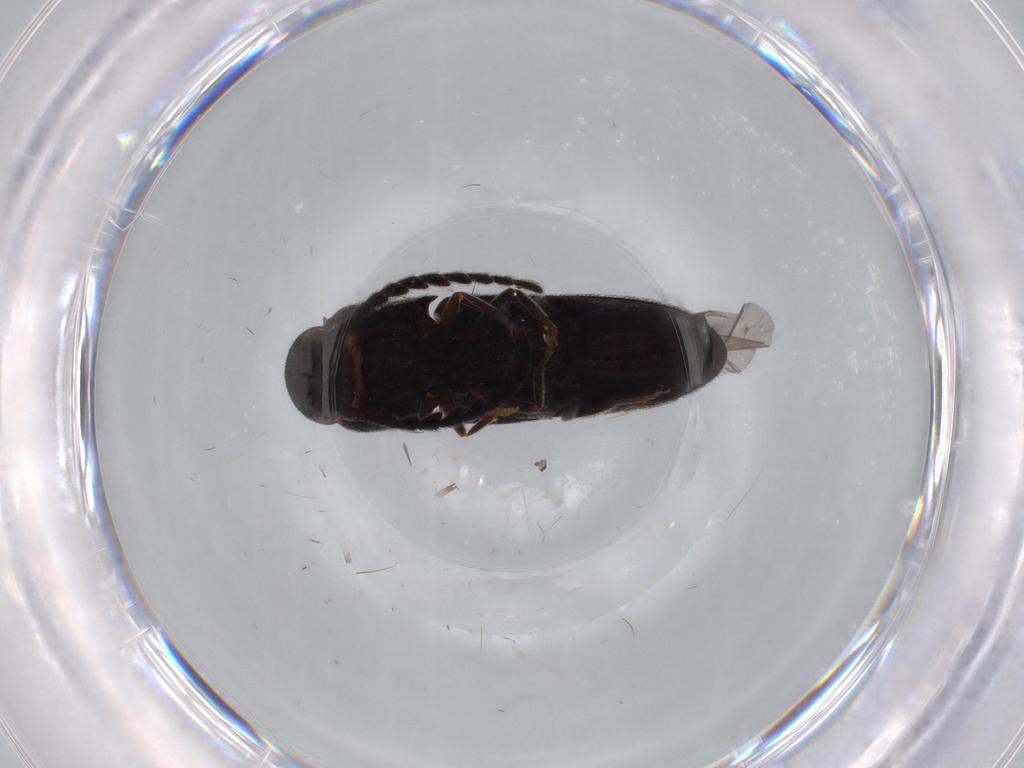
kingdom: Animalia
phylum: Arthropoda
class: Insecta
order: Coleoptera
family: Eucnemidae
